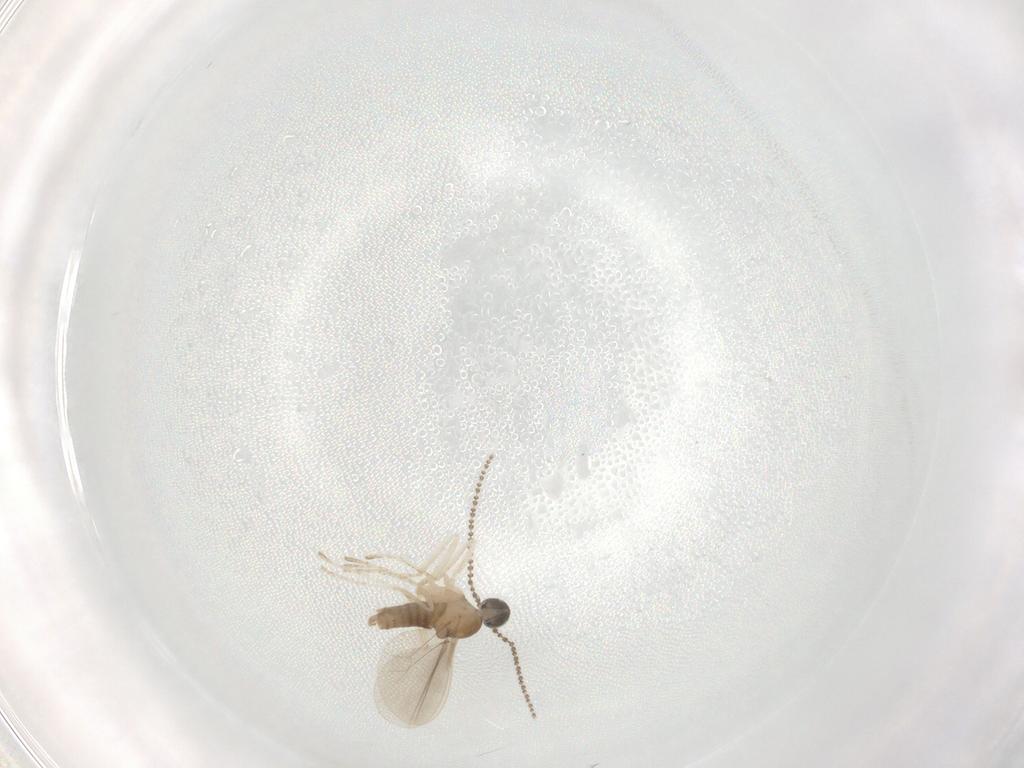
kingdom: Animalia
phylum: Arthropoda
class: Insecta
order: Diptera
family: Cecidomyiidae
